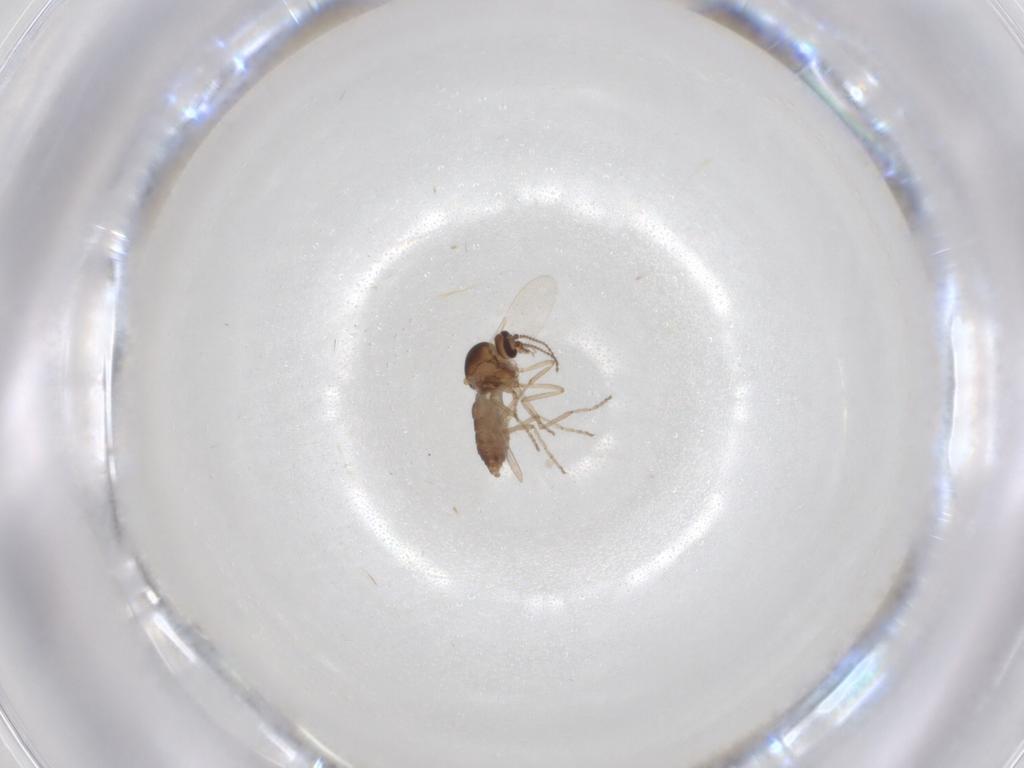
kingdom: Animalia
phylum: Arthropoda
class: Insecta
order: Diptera
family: Ceratopogonidae
